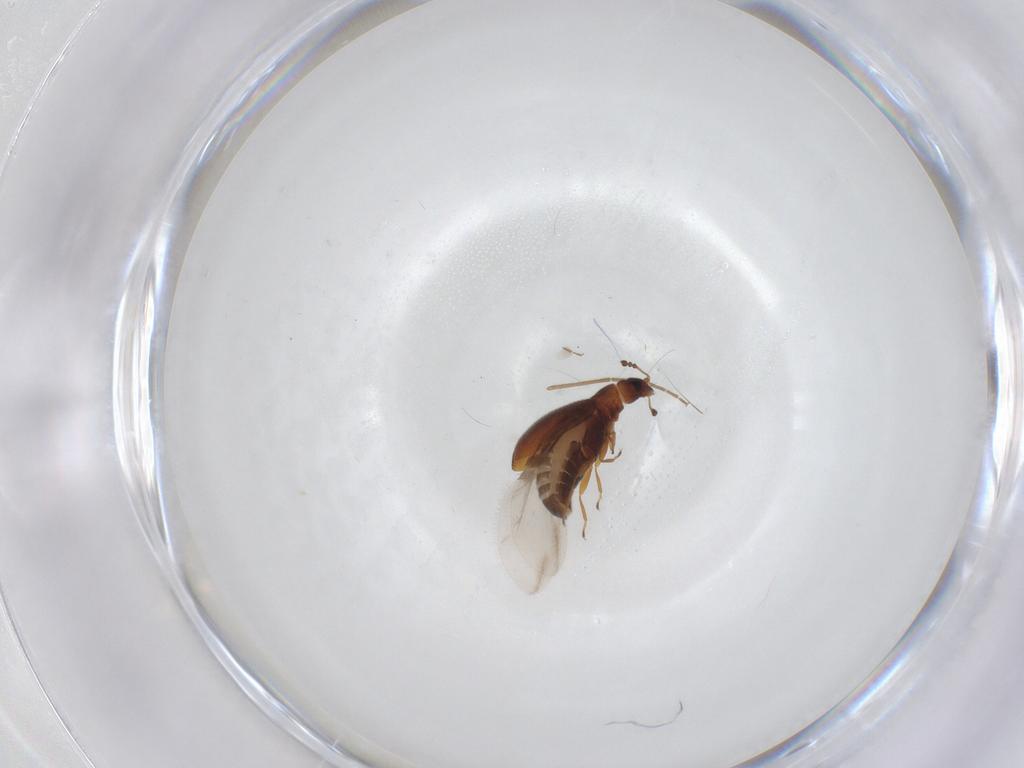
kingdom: Animalia
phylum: Arthropoda
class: Insecta
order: Coleoptera
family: Latridiidae
